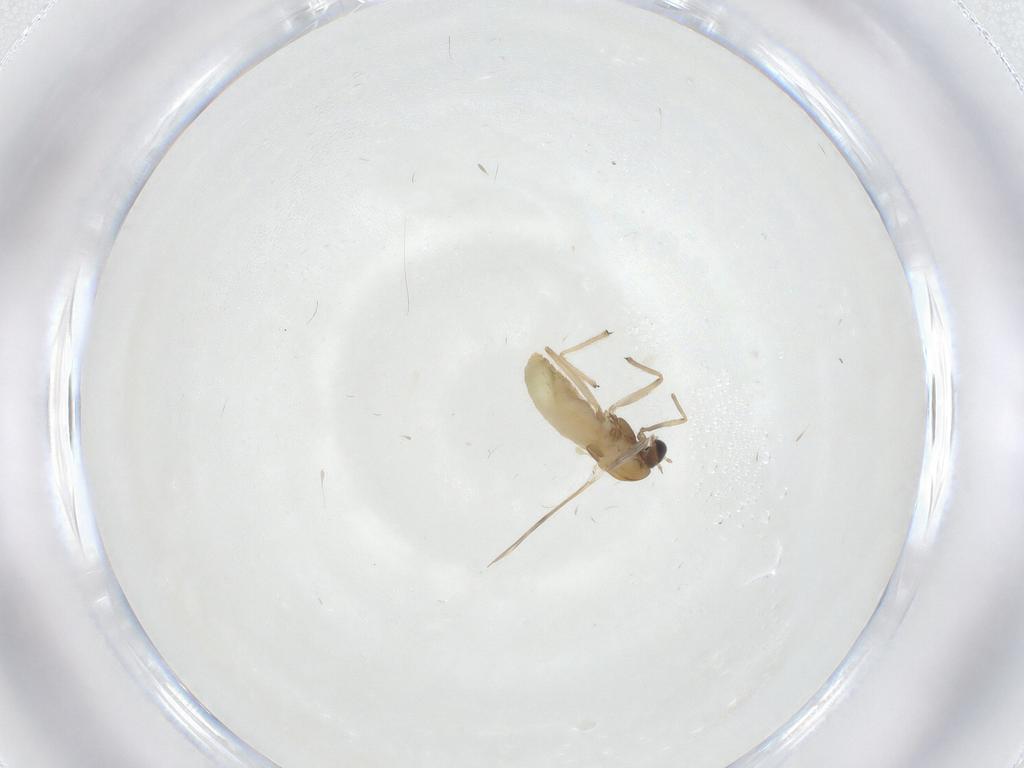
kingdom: Animalia
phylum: Arthropoda
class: Insecta
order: Diptera
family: Chironomidae
